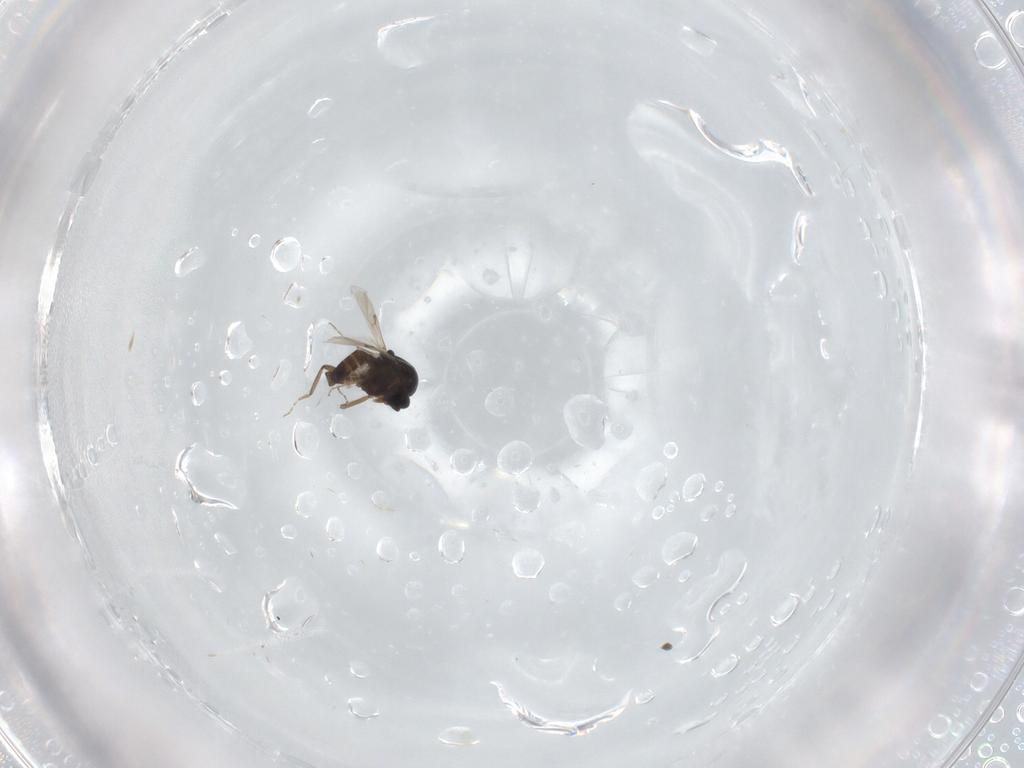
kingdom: Animalia
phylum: Arthropoda
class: Insecta
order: Diptera
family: Ceratopogonidae
